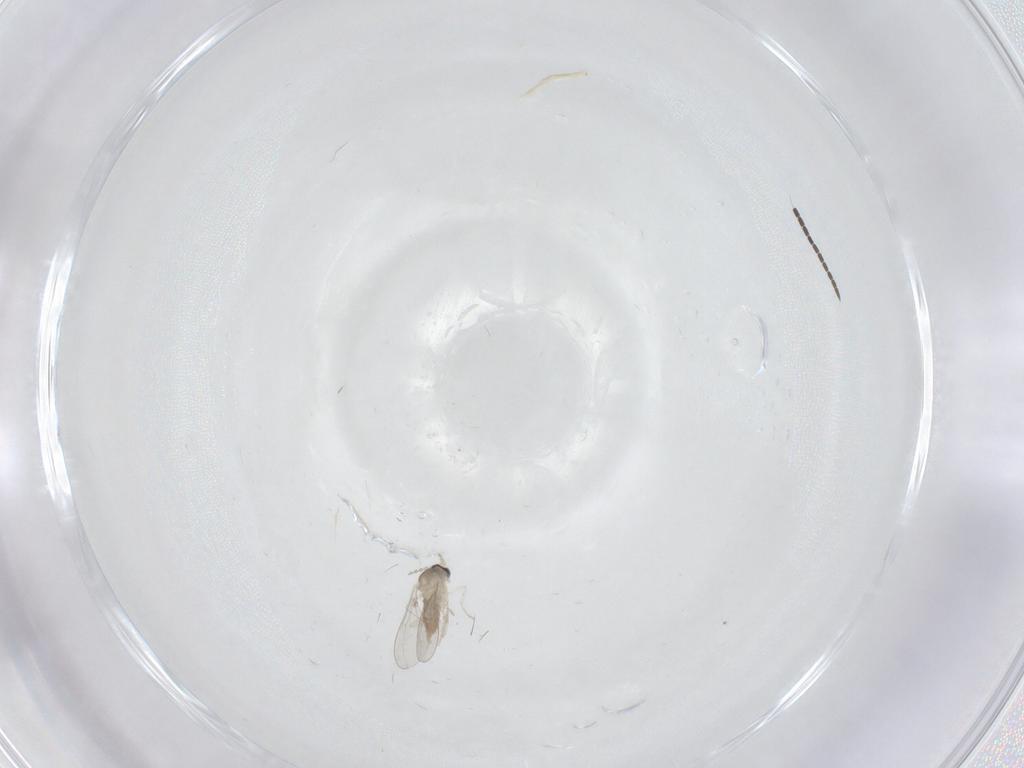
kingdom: Animalia
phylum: Arthropoda
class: Insecta
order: Diptera
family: Cecidomyiidae
